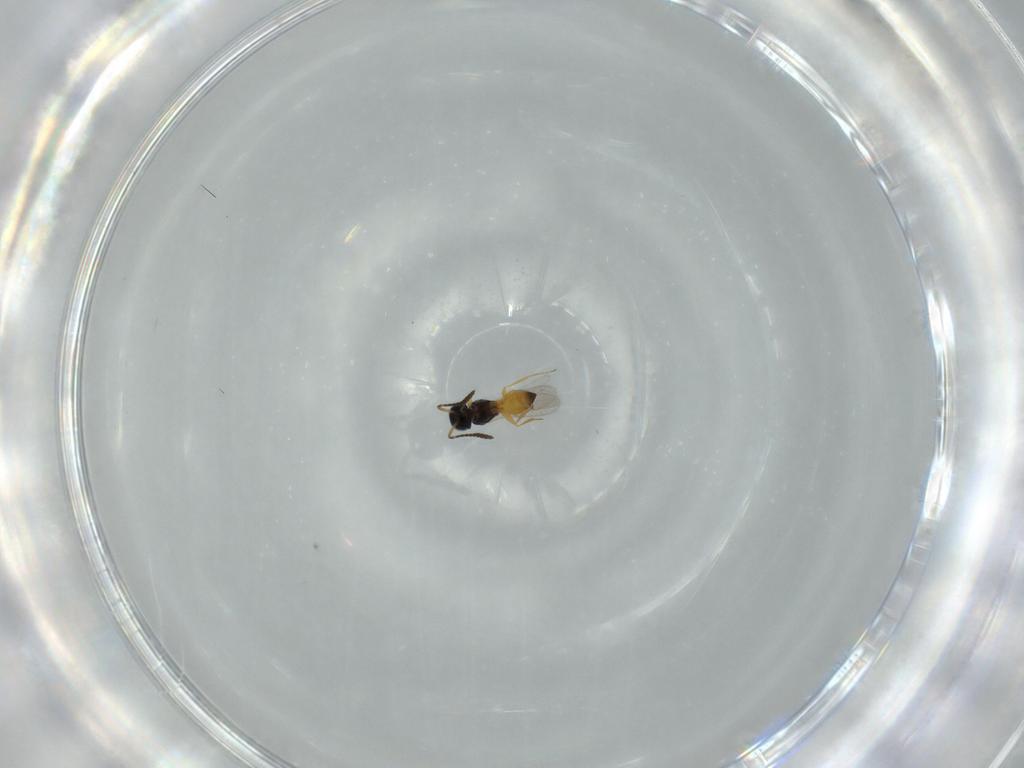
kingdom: Animalia
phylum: Arthropoda
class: Insecta
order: Hymenoptera
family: Scelionidae
